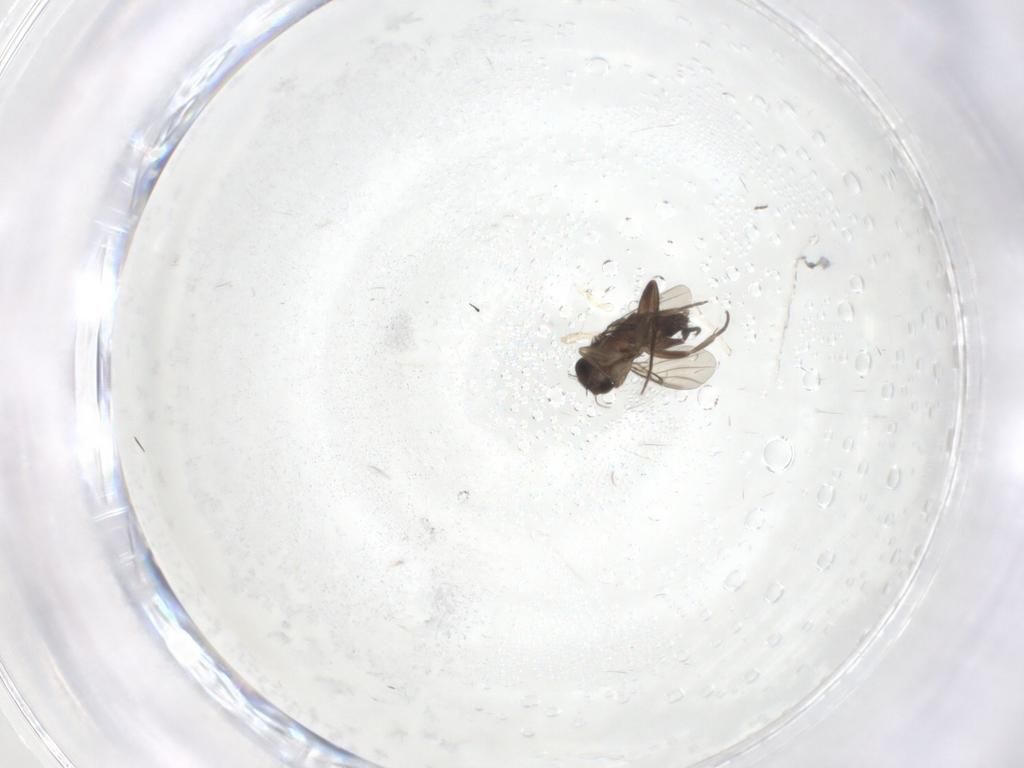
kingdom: Animalia
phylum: Arthropoda
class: Insecta
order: Diptera
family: Phoridae
